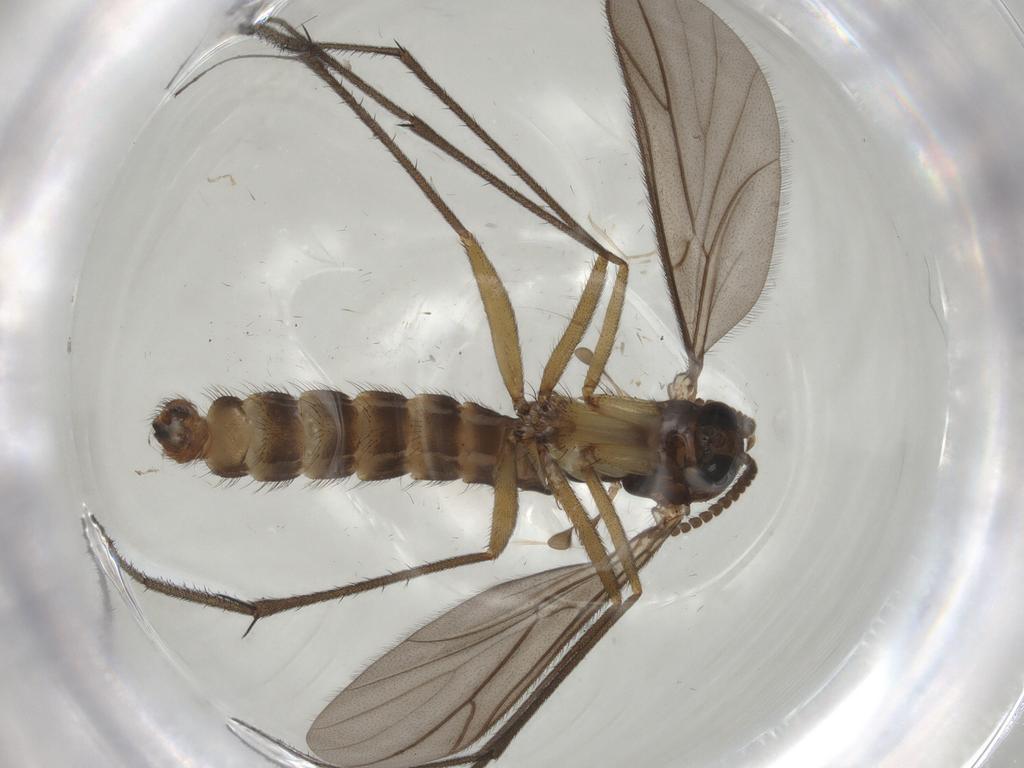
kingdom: Animalia
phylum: Arthropoda
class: Insecta
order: Diptera
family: Ditomyiidae
